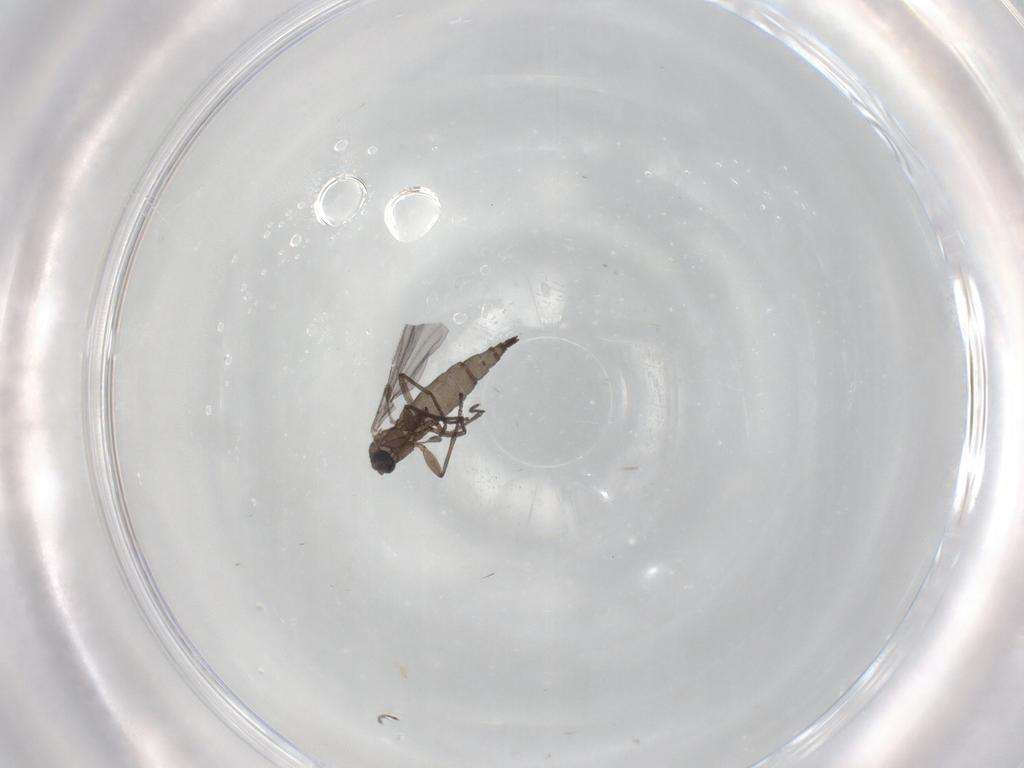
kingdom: Animalia
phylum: Arthropoda
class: Insecta
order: Diptera
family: Sciaridae
